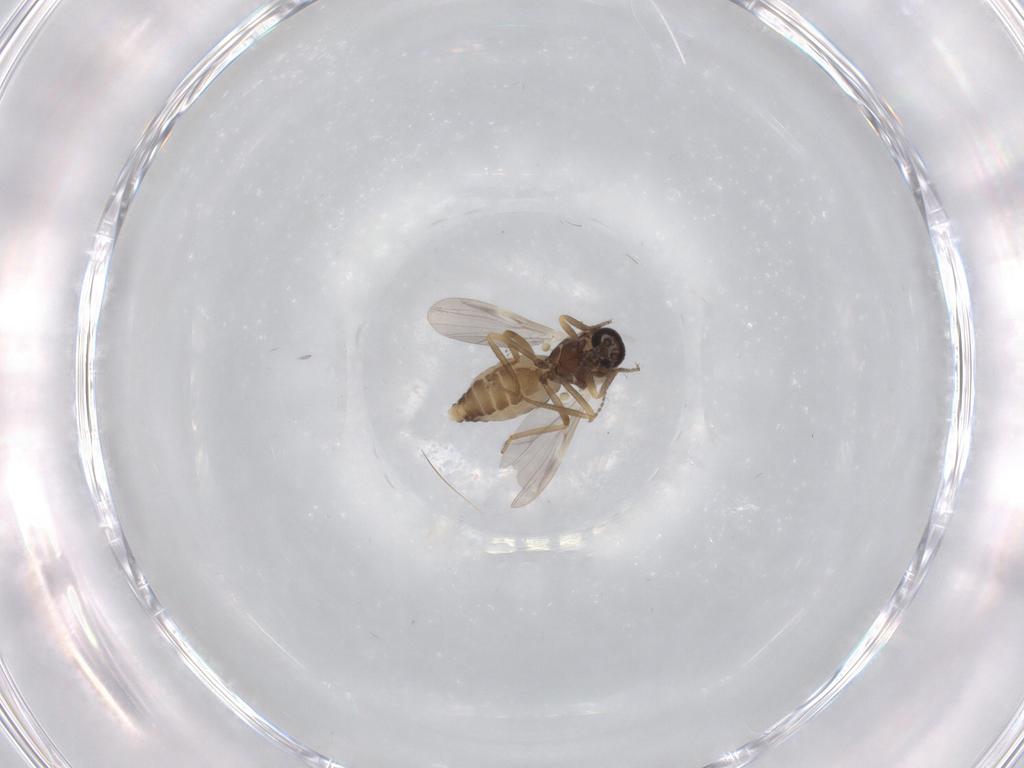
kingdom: Animalia
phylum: Arthropoda
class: Insecta
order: Diptera
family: Ceratopogonidae
